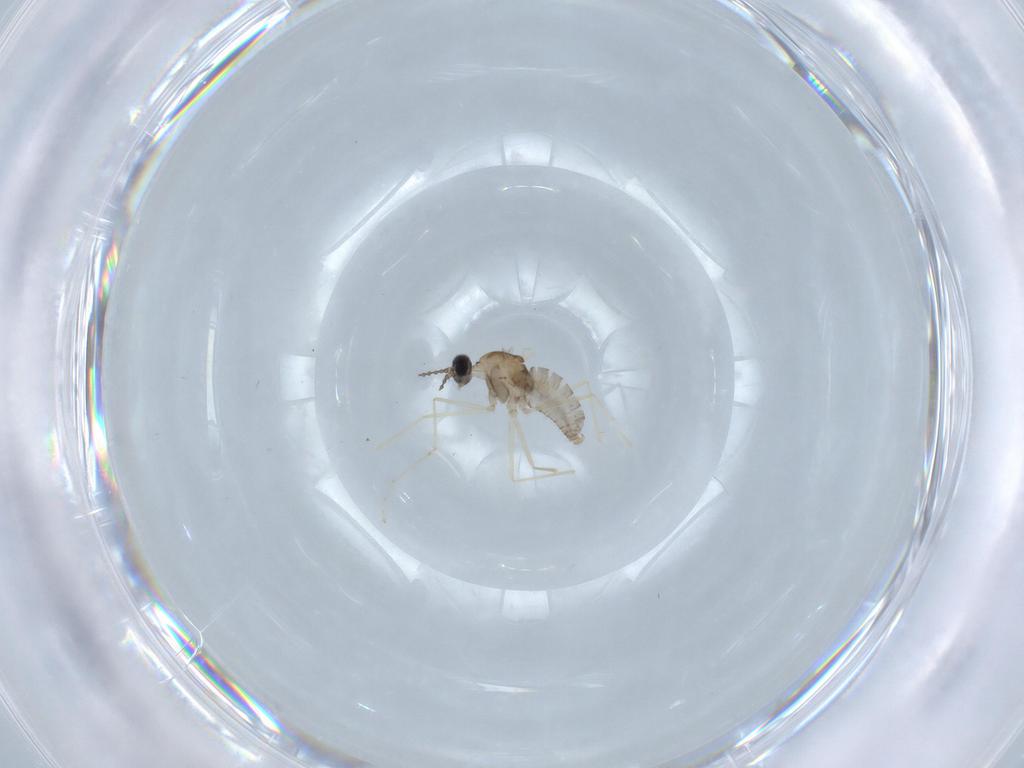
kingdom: Animalia
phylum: Arthropoda
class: Insecta
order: Diptera
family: Cecidomyiidae
